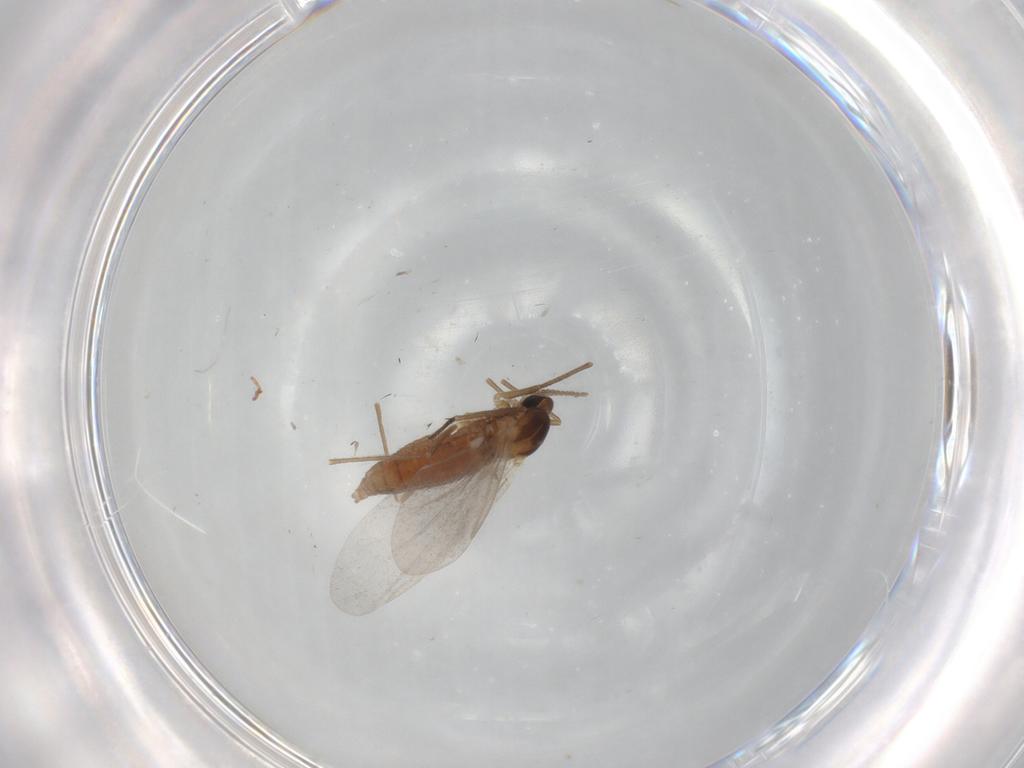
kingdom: Animalia
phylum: Arthropoda
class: Insecta
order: Diptera
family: Cecidomyiidae
